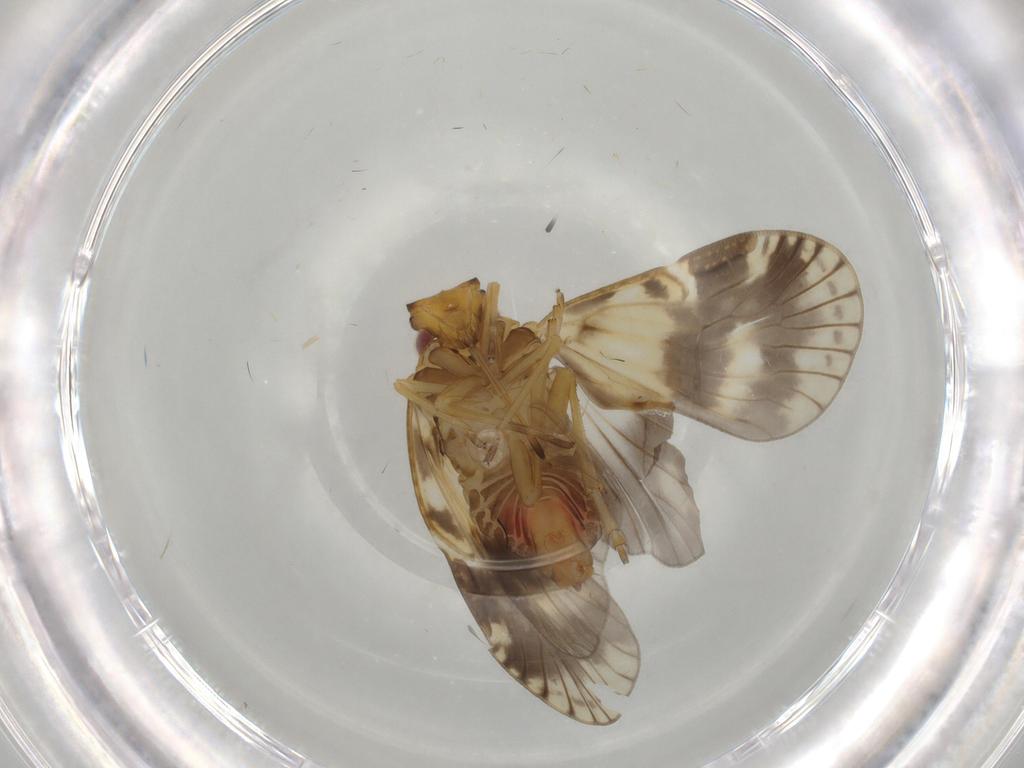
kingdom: Animalia
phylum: Arthropoda
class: Insecta
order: Hemiptera
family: Cixiidae
